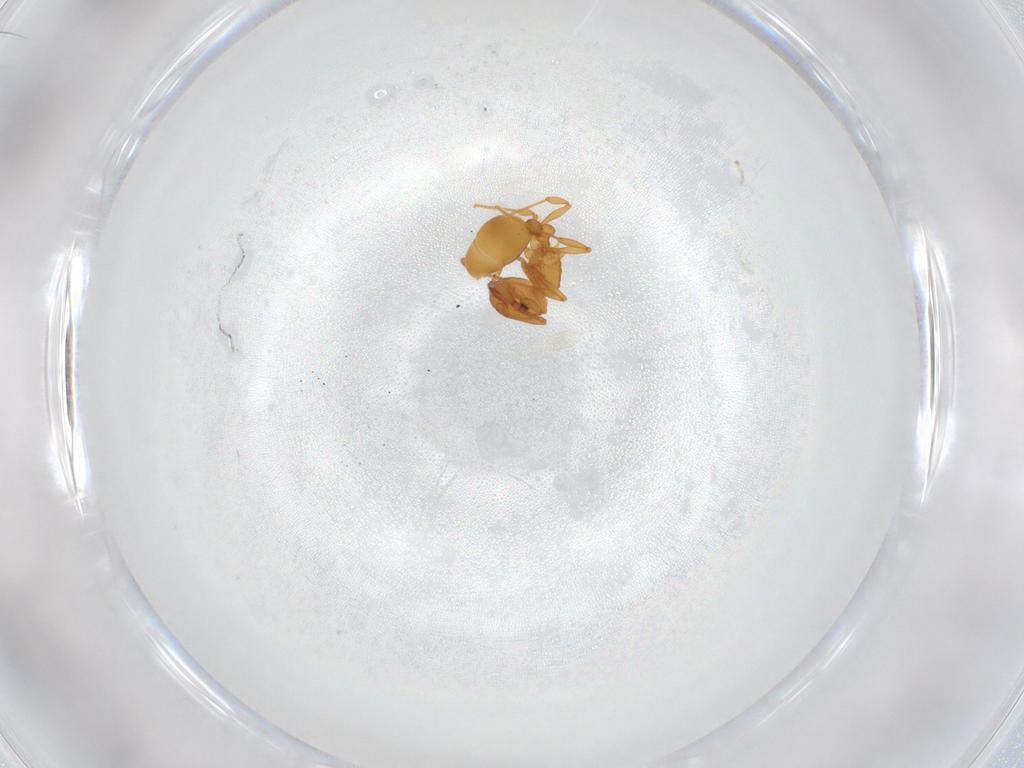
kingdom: Animalia
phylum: Arthropoda
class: Insecta
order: Hymenoptera
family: Formicidae
